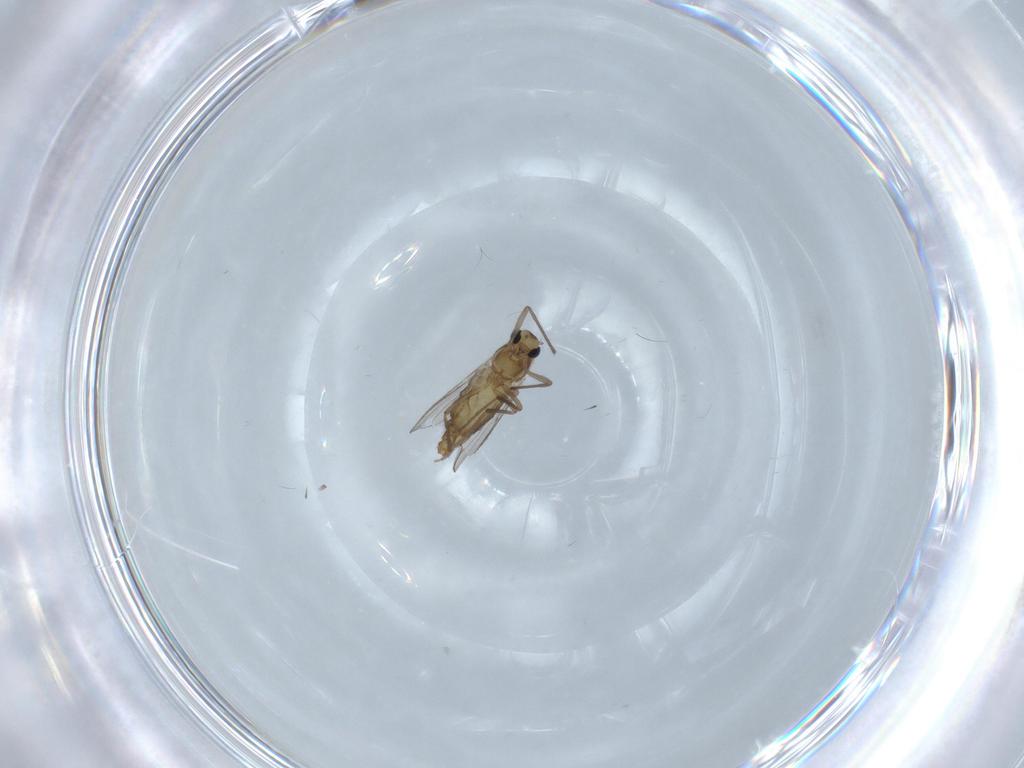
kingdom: Animalia
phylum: Arthropoda
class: Insecta
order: Diptera
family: Chironomidae
